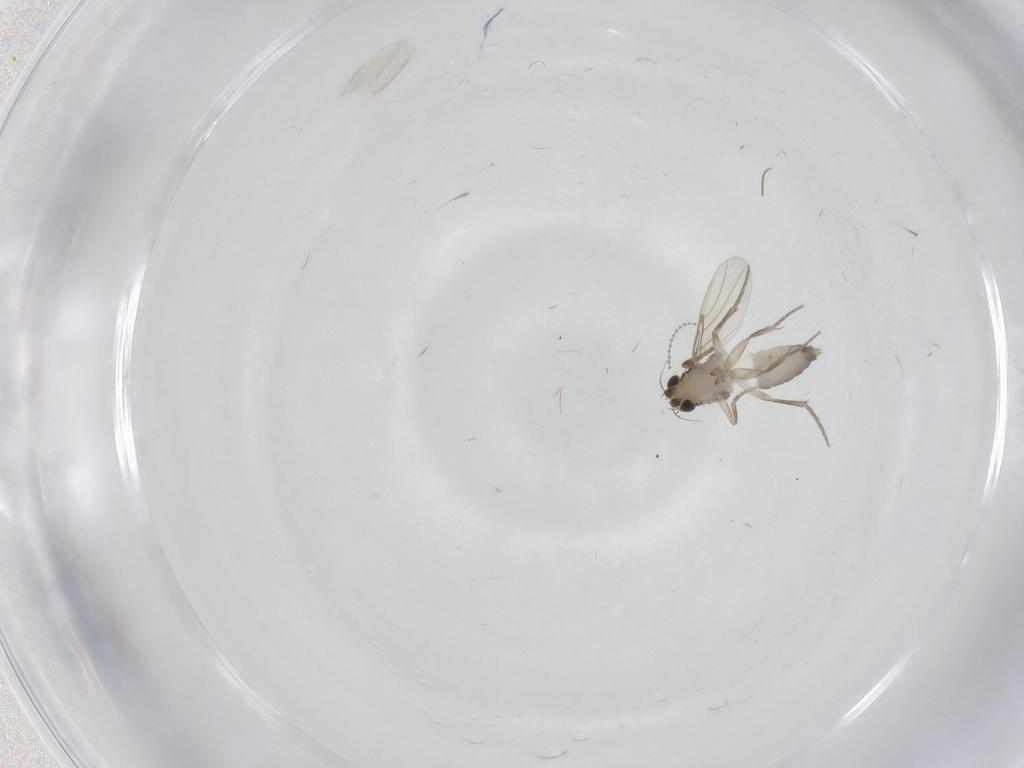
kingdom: Animalia
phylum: Arthropoda
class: Insecta
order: Diptera
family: Phoridae
